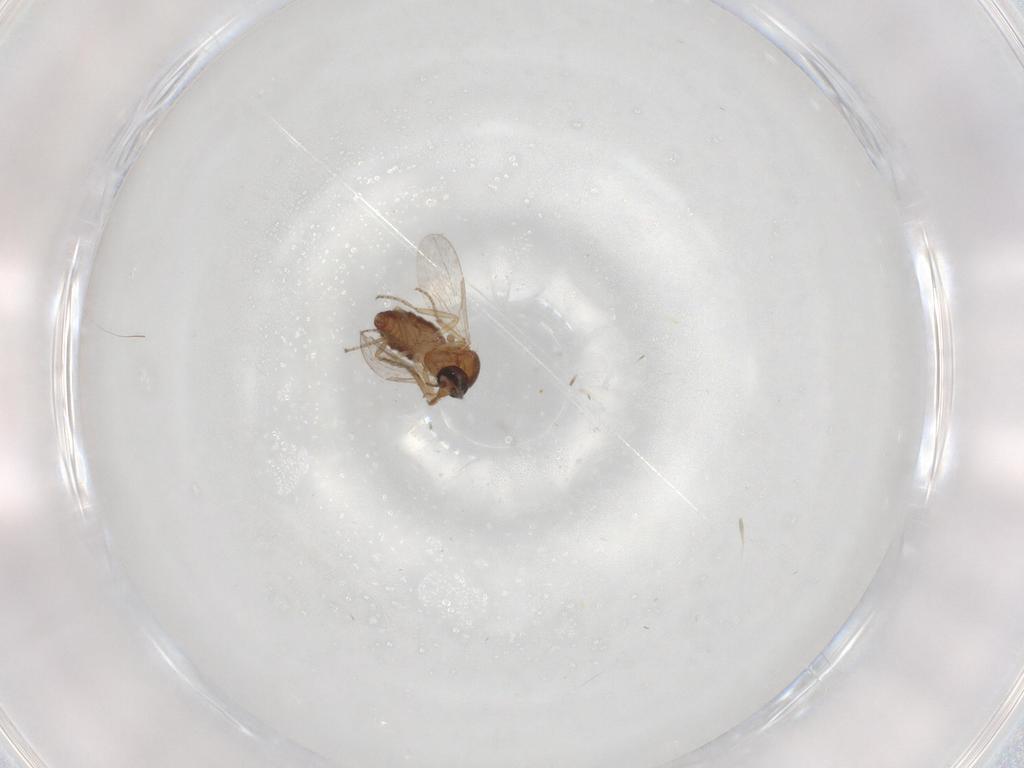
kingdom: Animalia
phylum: Arthropoda
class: Insecta
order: Diptera
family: Ceratopogonidae
